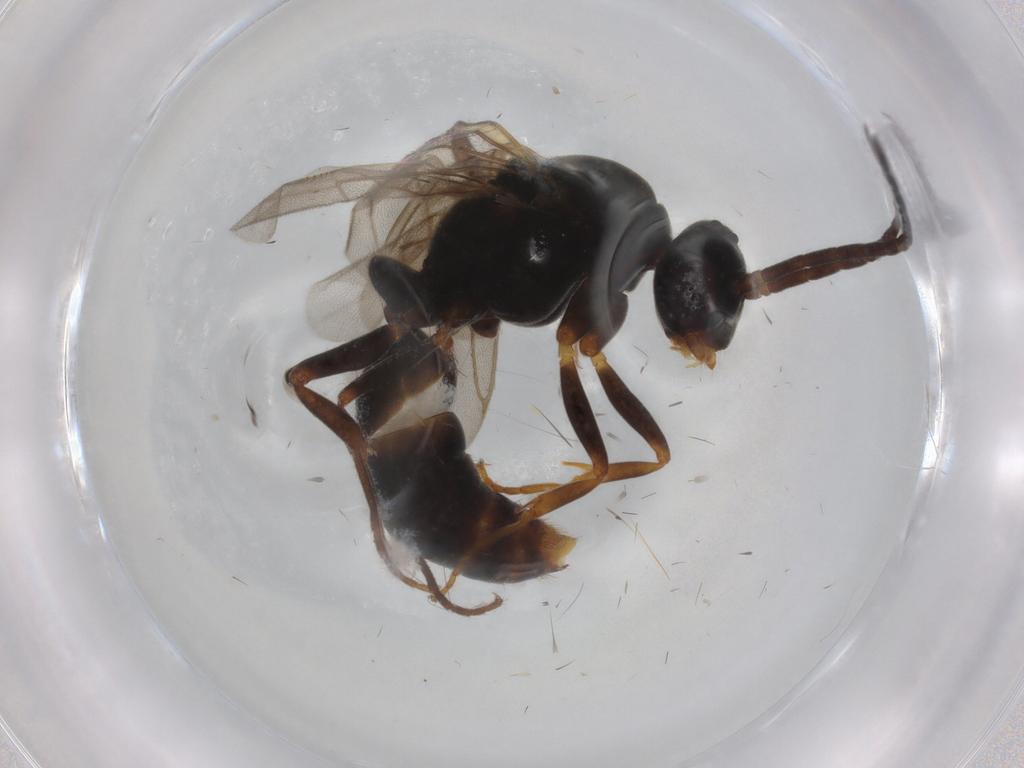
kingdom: Animalia
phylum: Arthropoda
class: Insecta
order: Hymenoptera
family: Formicidae
